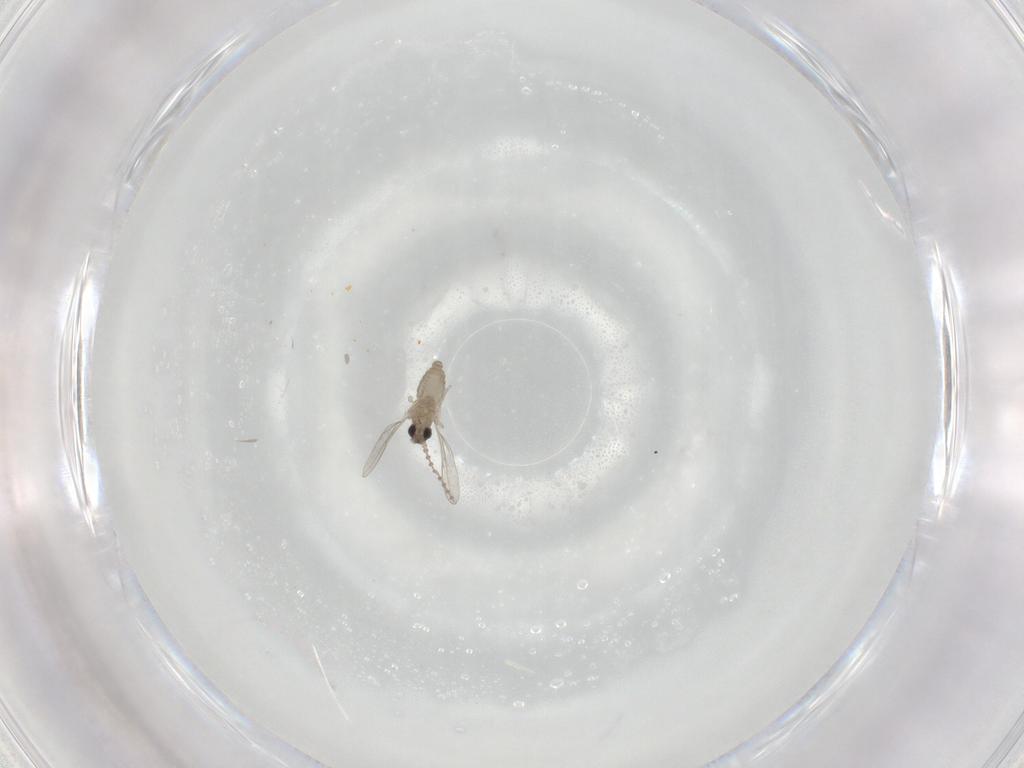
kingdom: Animalia
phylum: Arthropoda
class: Insecta
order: Diptera
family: Cecidomyiidae
